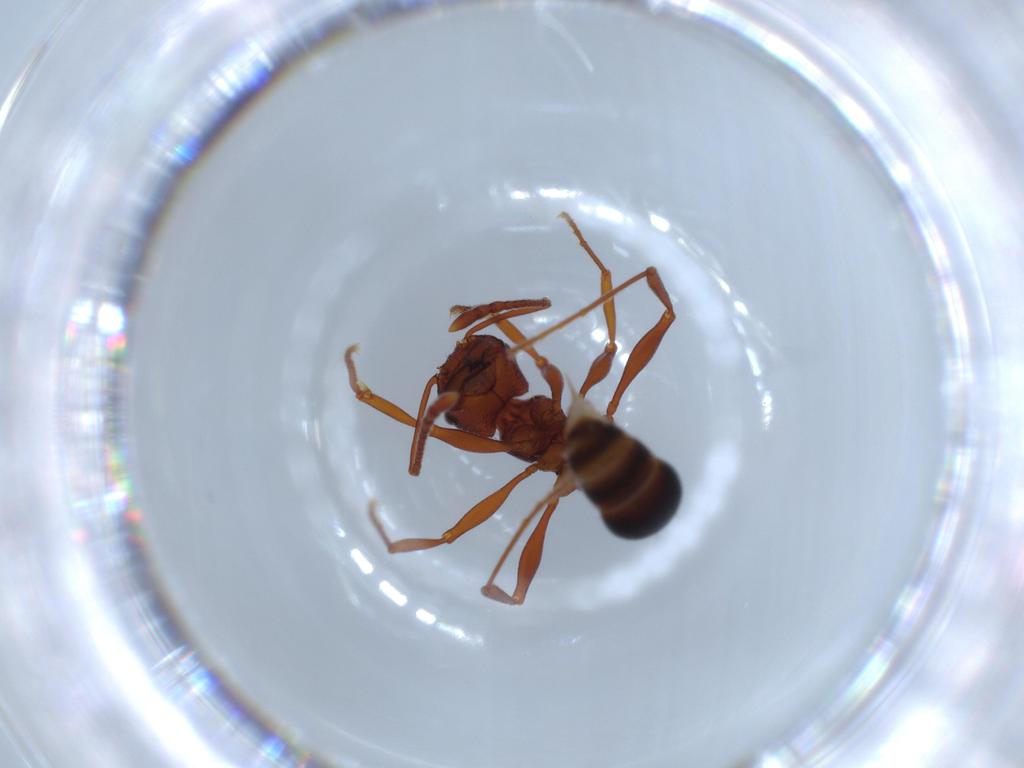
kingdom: Animalia
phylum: Arthropoda
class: Insecta
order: Hymenoptera
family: Formicidae
